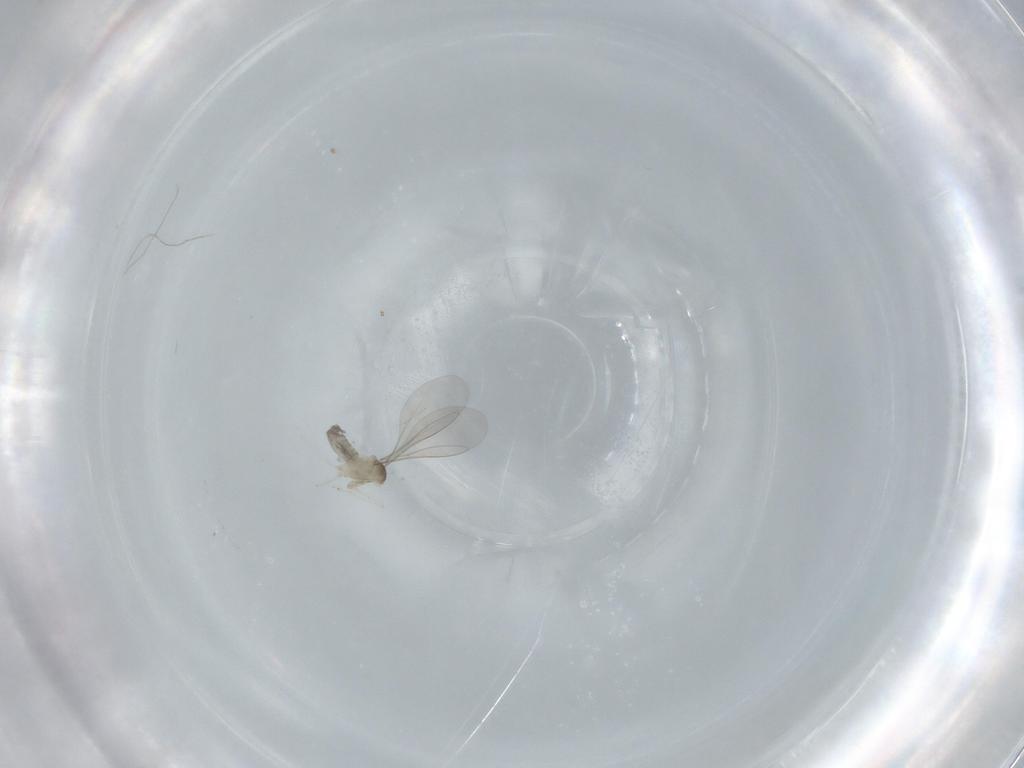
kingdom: Animalia
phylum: Arthropoda
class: Insecta
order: Diptera
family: Cecidomyiidae
